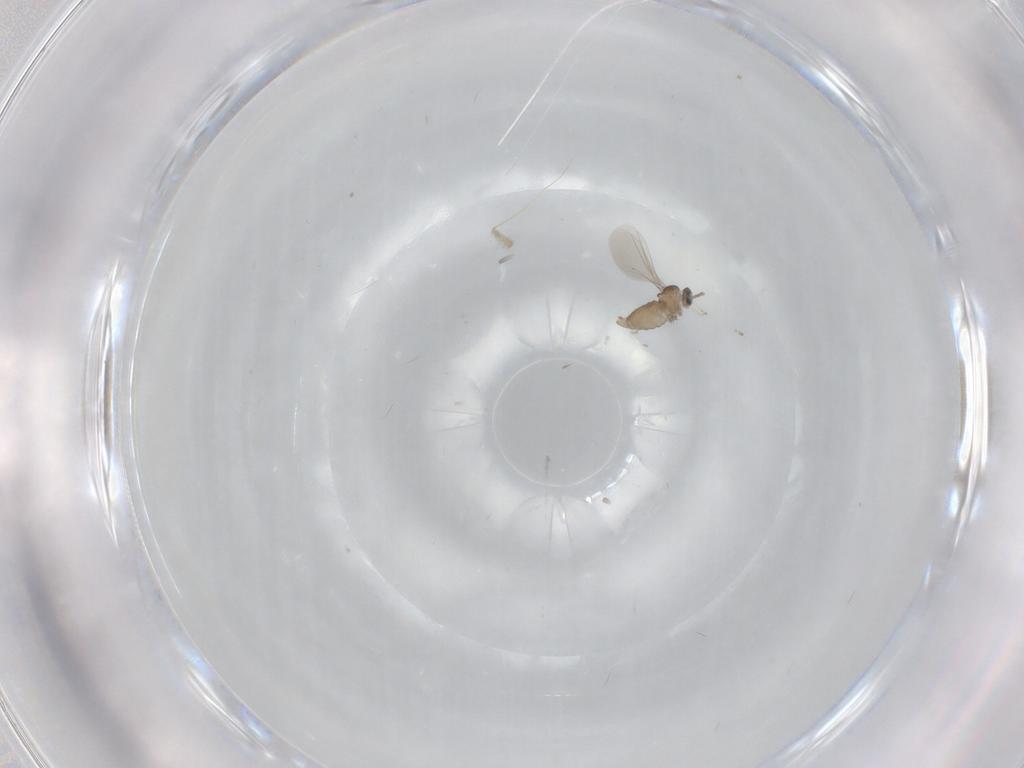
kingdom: Animalia
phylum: Arthropoda
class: Insecta
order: Diptera
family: Cecidomyiidae
